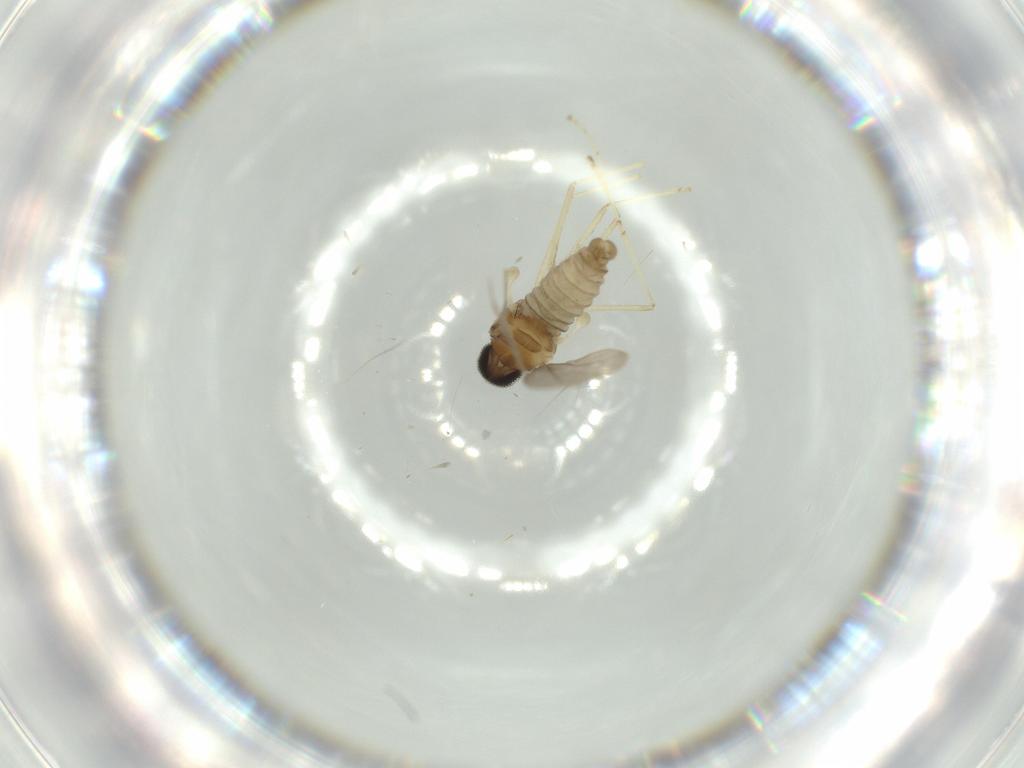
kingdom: Animalia
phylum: Arthropoda
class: Insecta
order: Diptera
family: Cecidomyiidae
